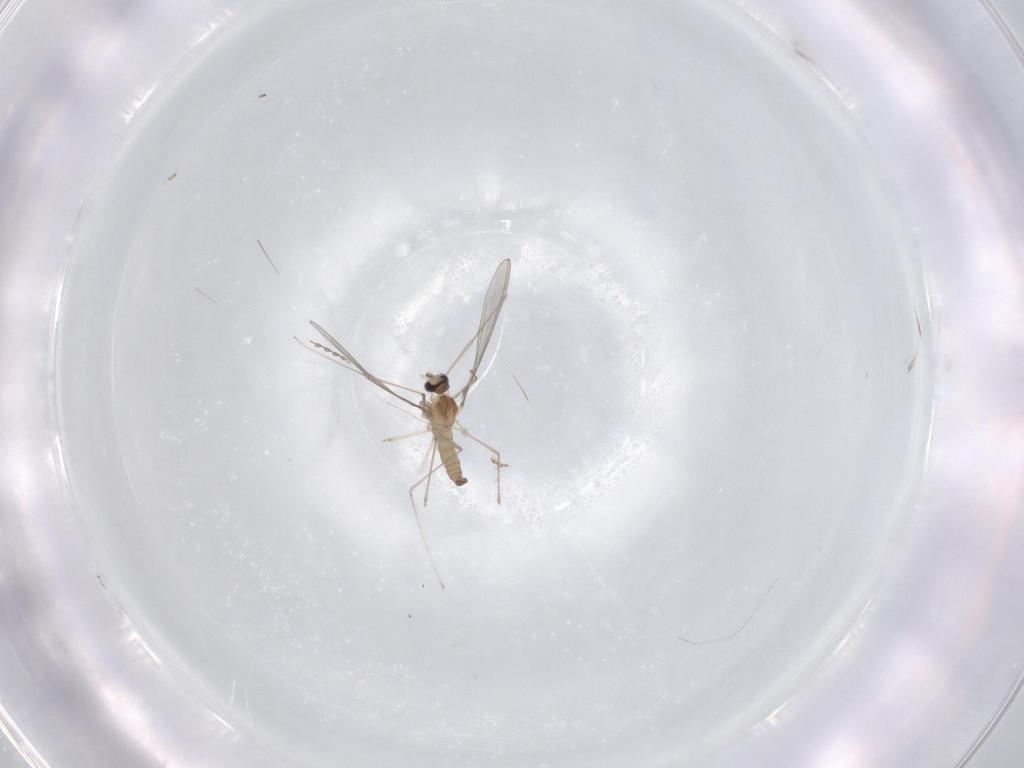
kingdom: Animalia
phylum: Arthropoda
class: Insecta
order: Diptera
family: Cecidomyiidae
